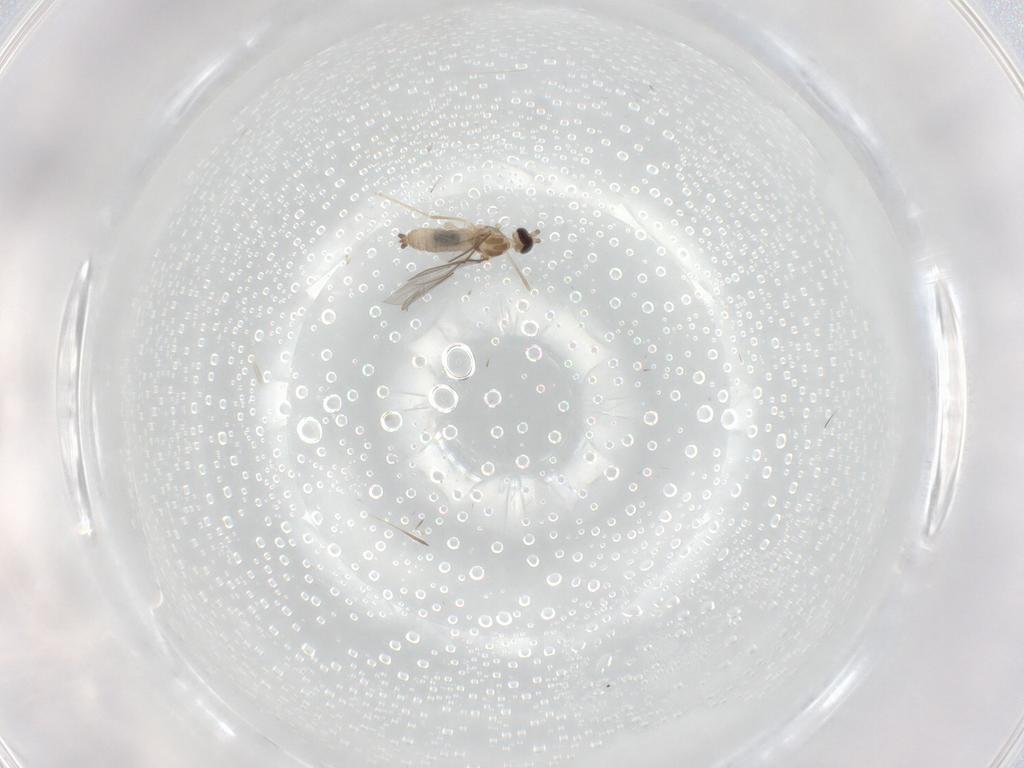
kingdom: Animalia
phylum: Arthropoda
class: Insecta
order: Diptera
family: Cecidomyiidae
